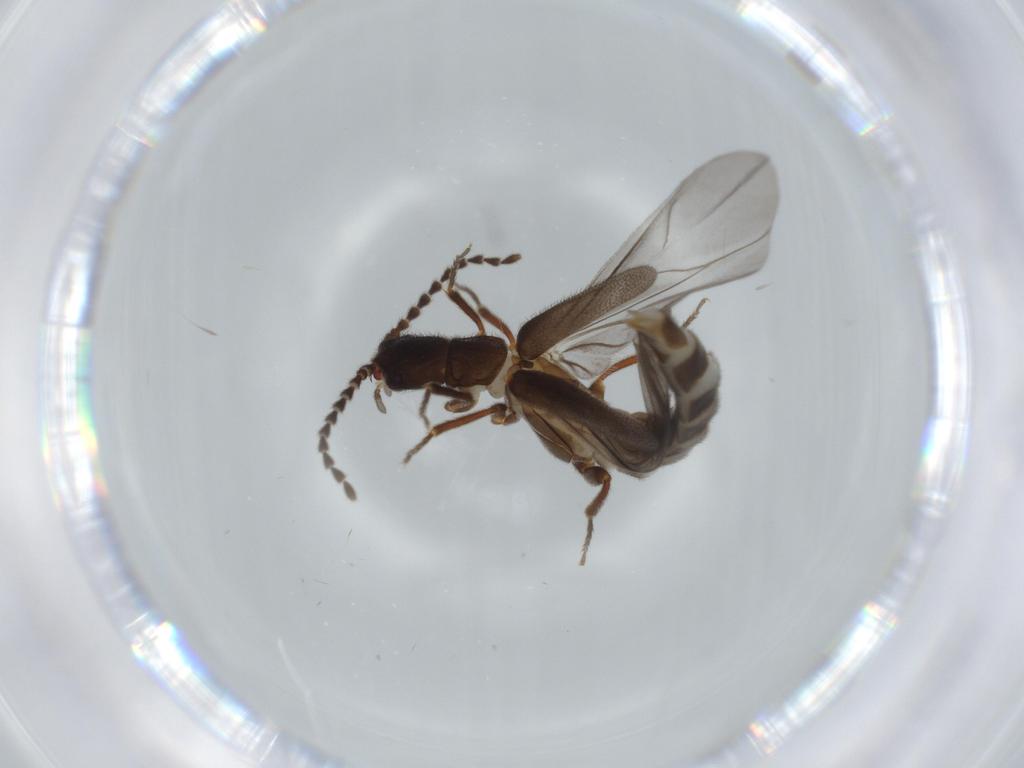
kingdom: Animalia
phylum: Arthropoda
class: Insecta
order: Coleoptera
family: Omethidae
